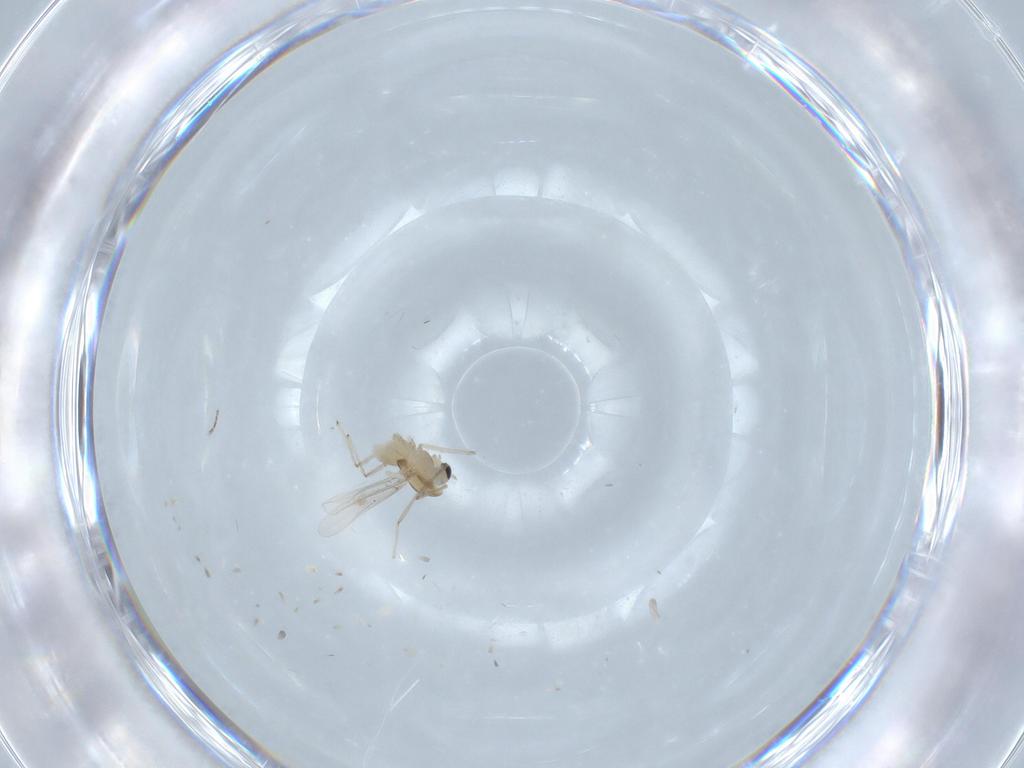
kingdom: Animalia
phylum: Arthropoda
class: Insecta
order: Diptera
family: Chironomidae
